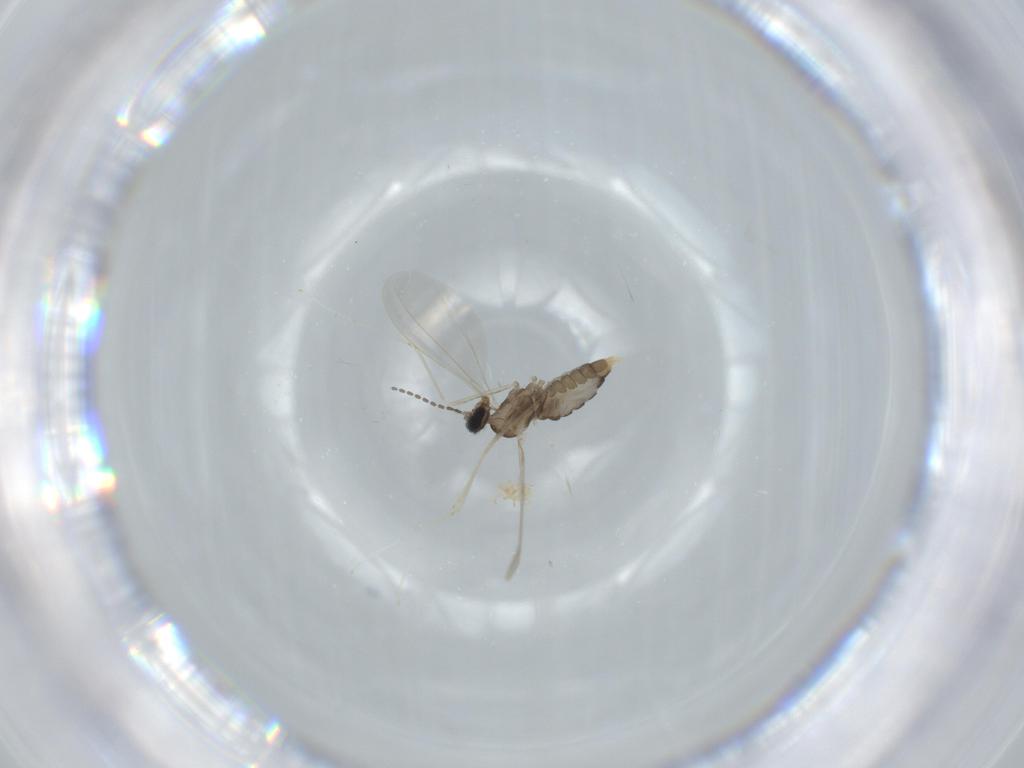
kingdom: Animalia
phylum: Arthropoda
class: Insecta
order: Diptera
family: Cecidomyiidae
